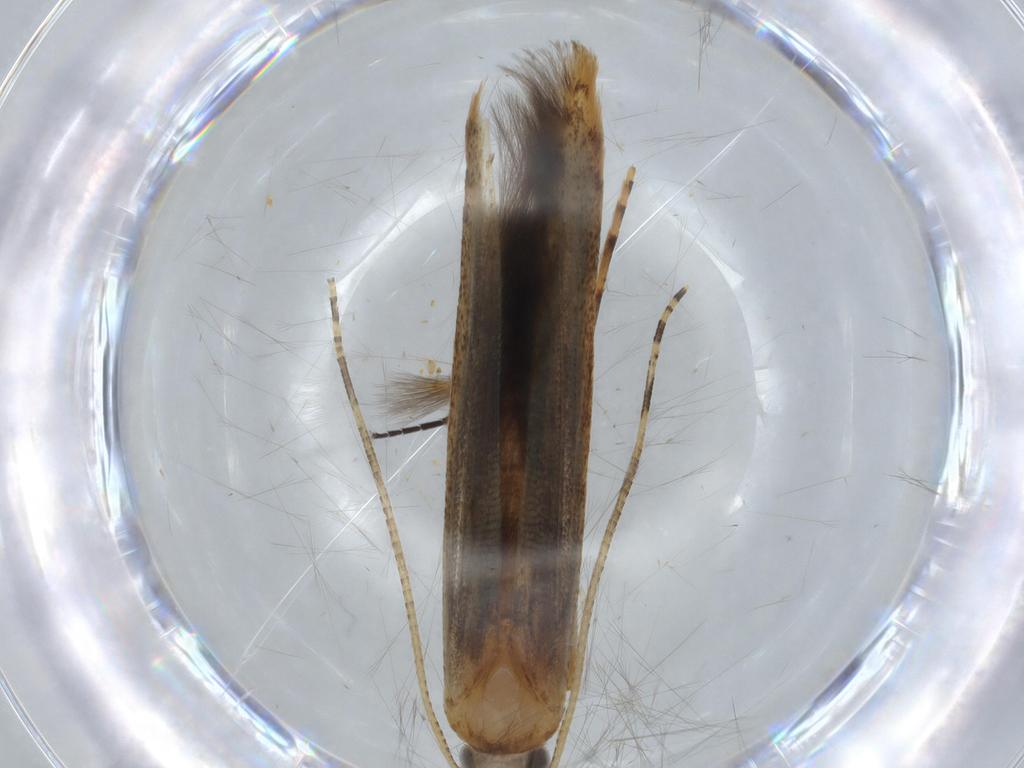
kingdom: Animalia
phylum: Arthropoda
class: Insecta
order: Lepidoptera
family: Batrachedridae
